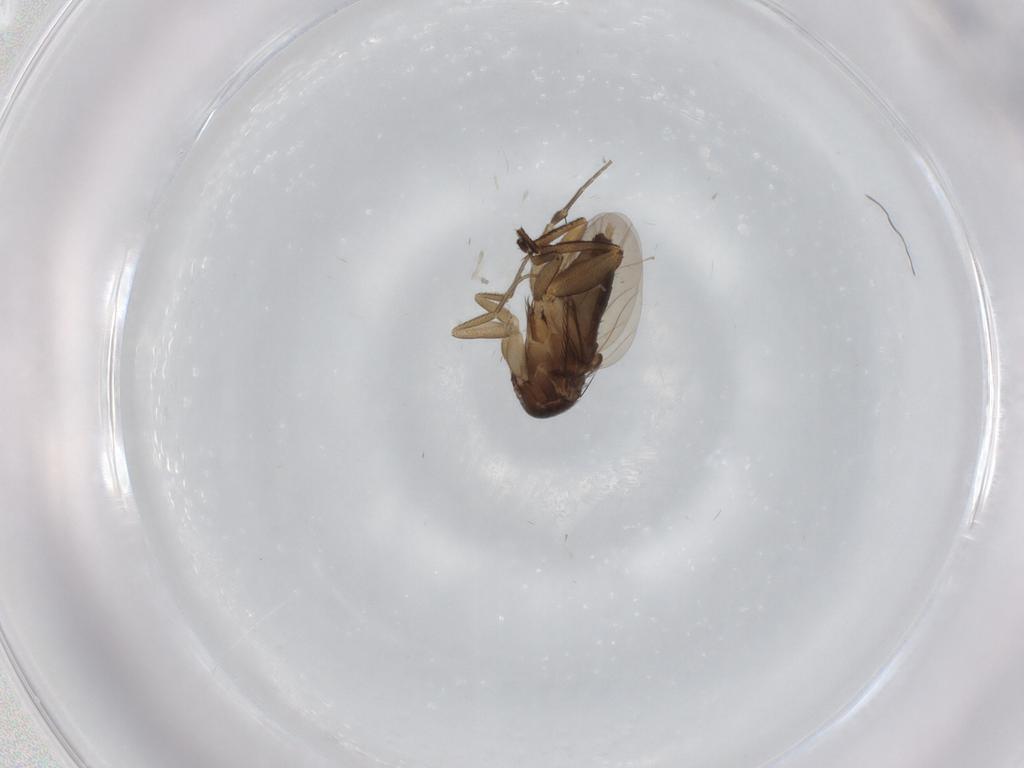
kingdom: Animalia
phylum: Arthropoda
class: Insecta
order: Diptera
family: Phoridae
